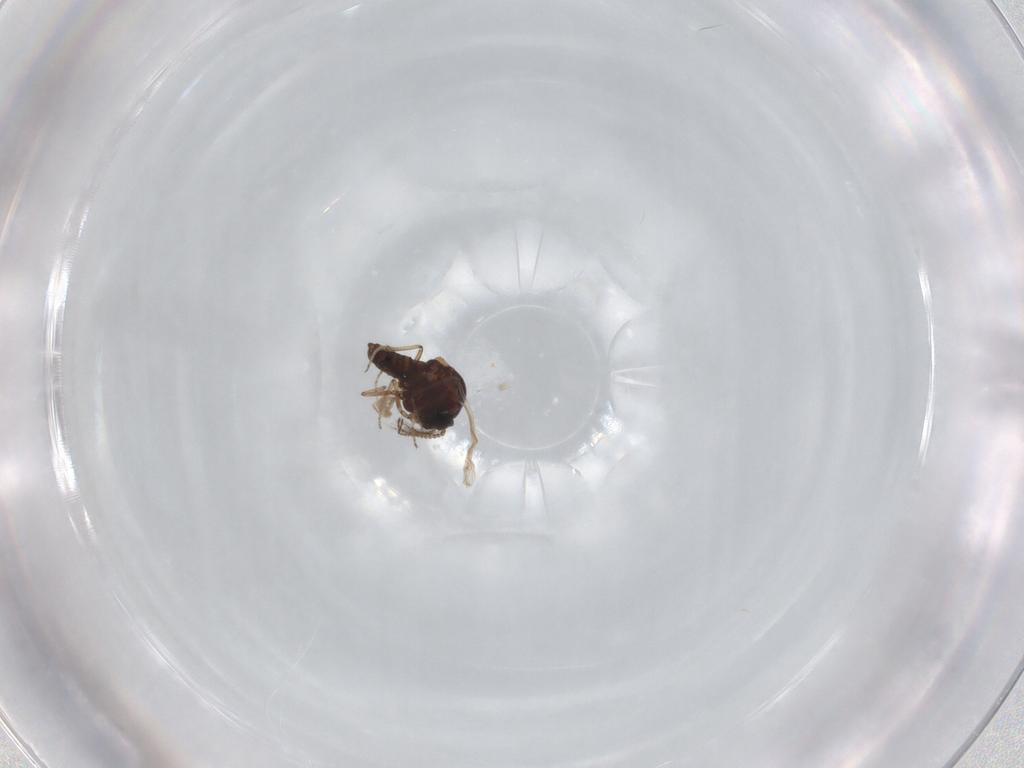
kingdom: Animalia
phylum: Arthropoda
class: Insecta
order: Diptera
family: Ceratopogonidae
